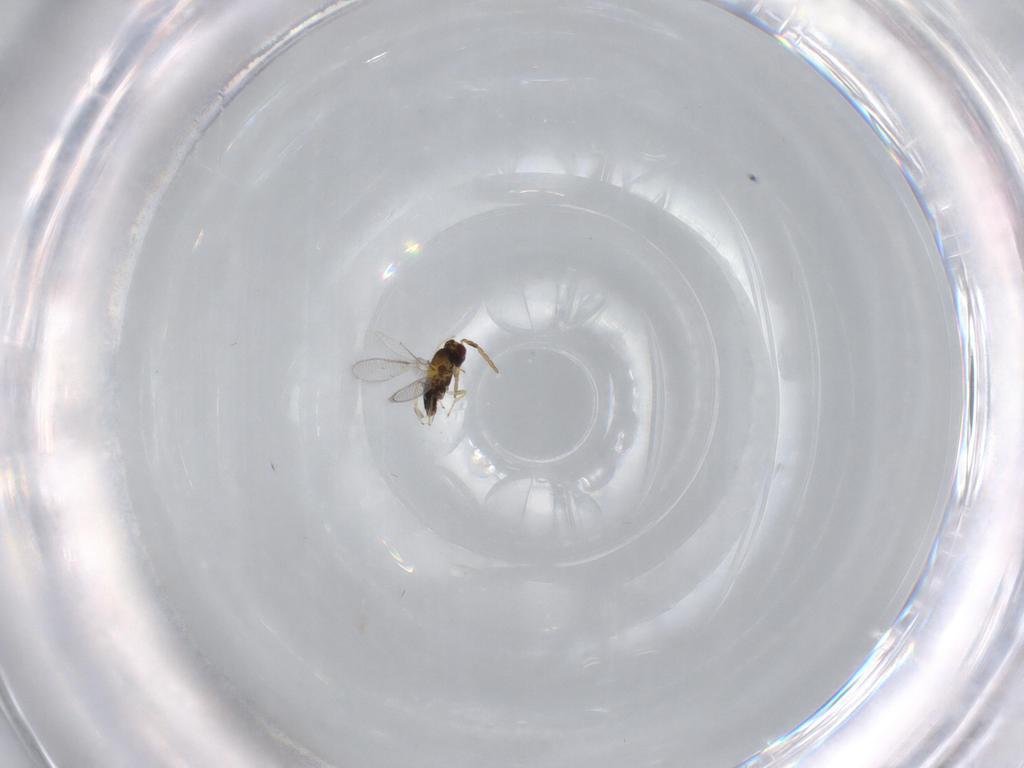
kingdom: Animalia
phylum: Arthropoda
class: Insecta
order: Hymenoptera
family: Aphelinidae
